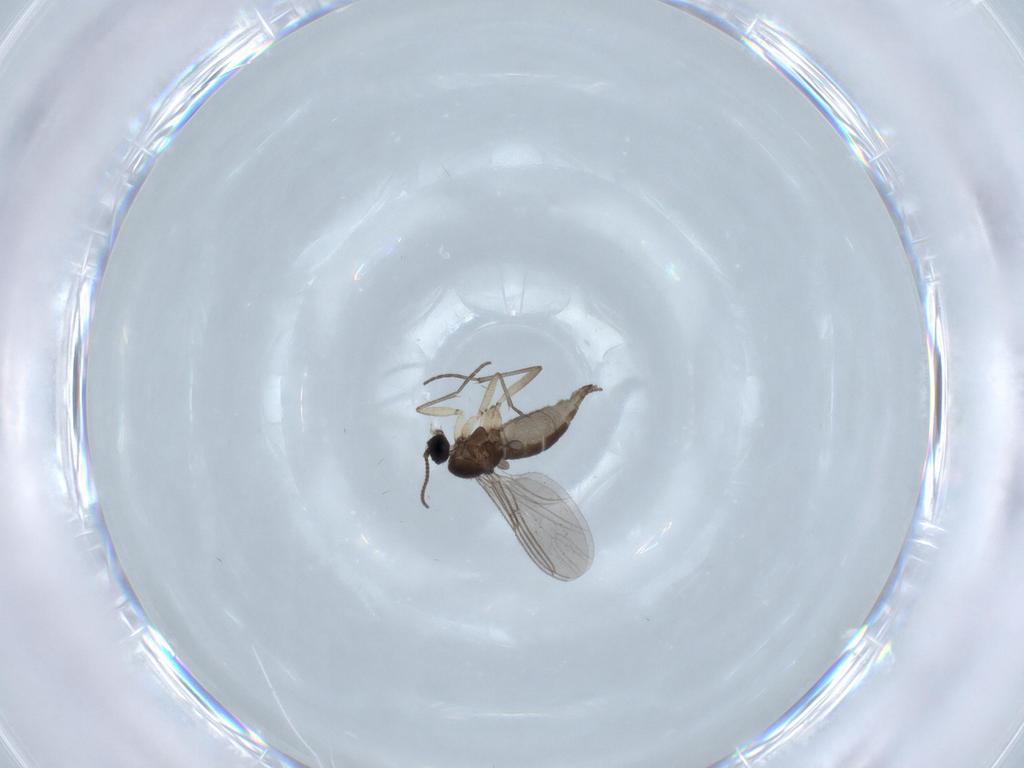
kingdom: Animalia
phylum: Arthropoda
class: Insecta
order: Diptera
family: Sciaridae
